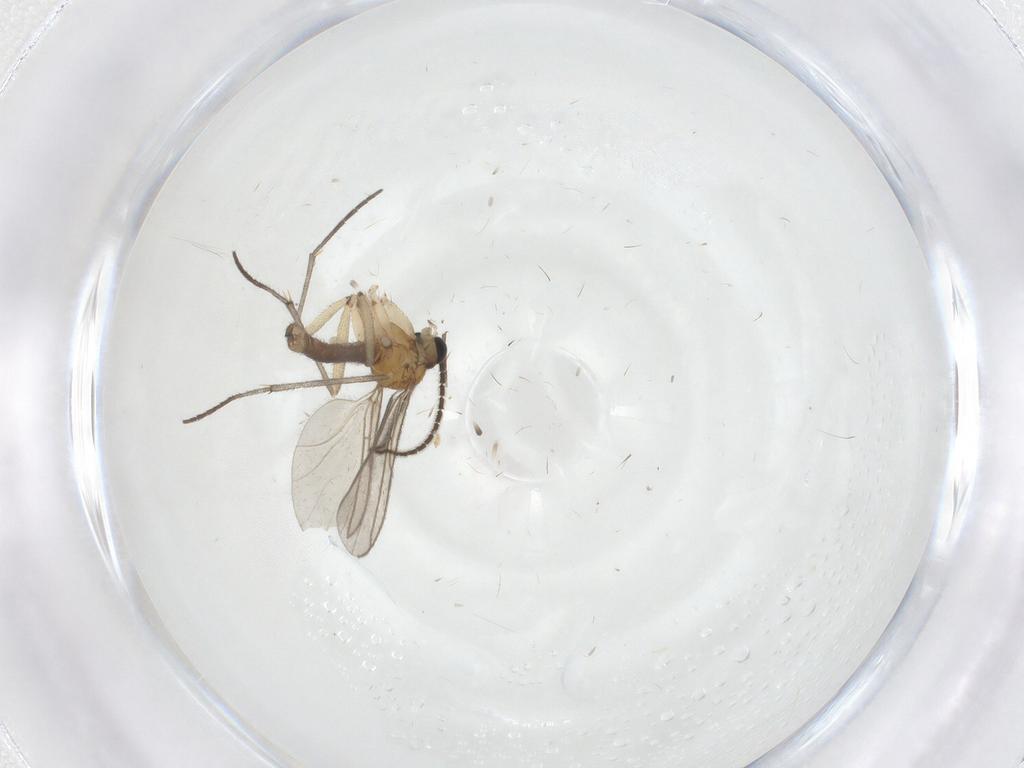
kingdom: Animalia
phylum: Arthropoda
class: Insecta
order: Diptera
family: Sciaridae
